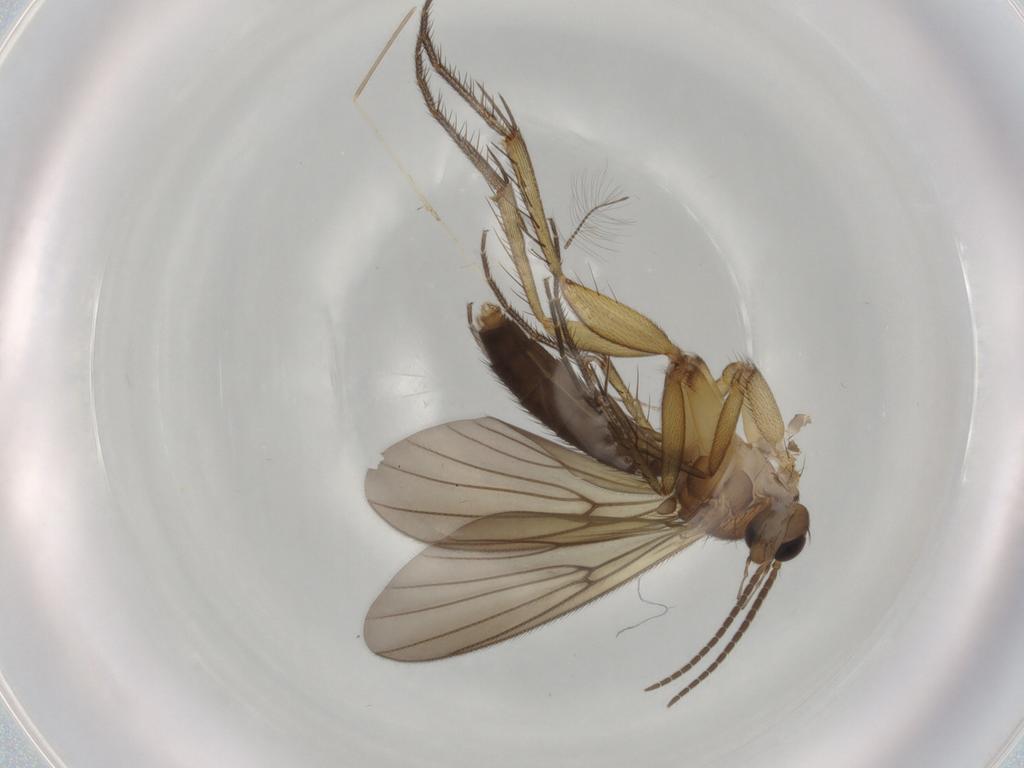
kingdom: Animalia
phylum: Arthropoda
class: Insecta
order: Diptera
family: Mycetophilidae
